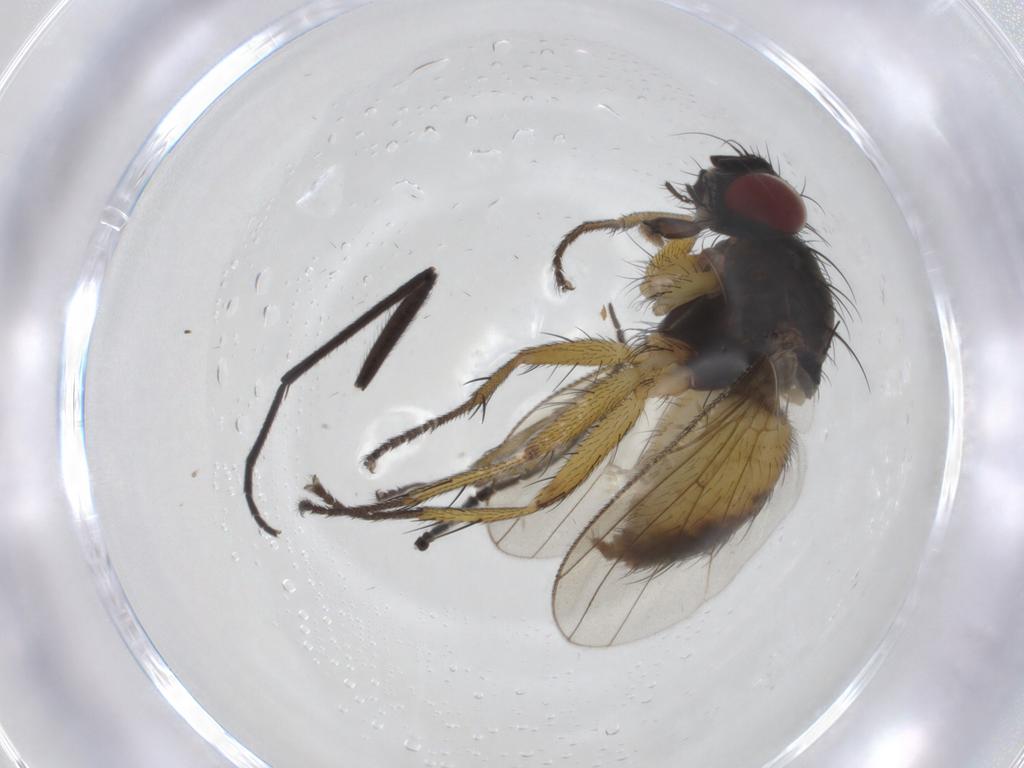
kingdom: Animalia
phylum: Arthropoda
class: Insecta
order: Diptera
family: Muscidae
